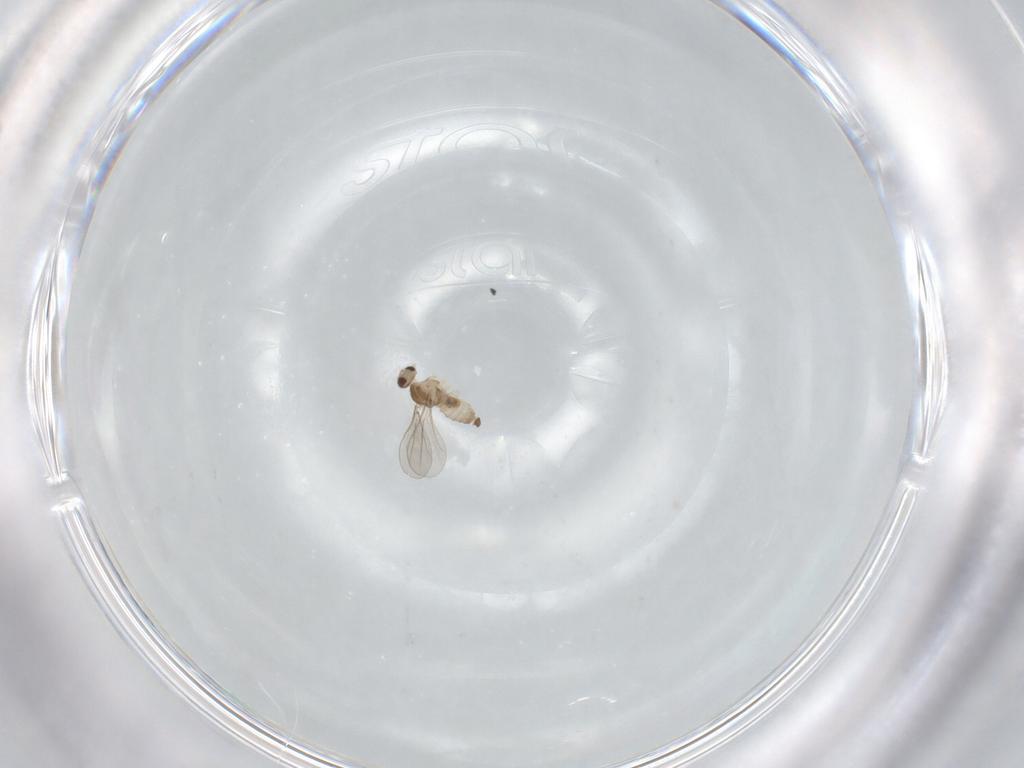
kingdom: Animalia
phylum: Arthropoda
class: Insecta
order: Diptera
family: Cecidomyiidae
